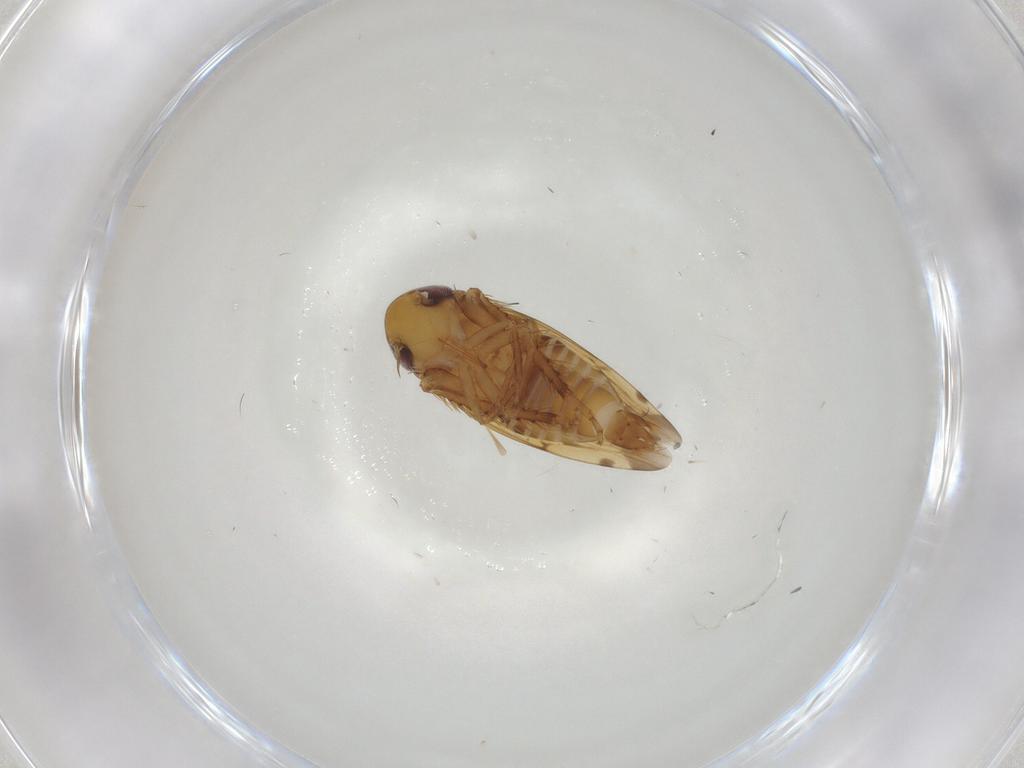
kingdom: Animalia
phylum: Arthropoda
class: Insecta
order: Hemiptera
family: Cicadellidae
